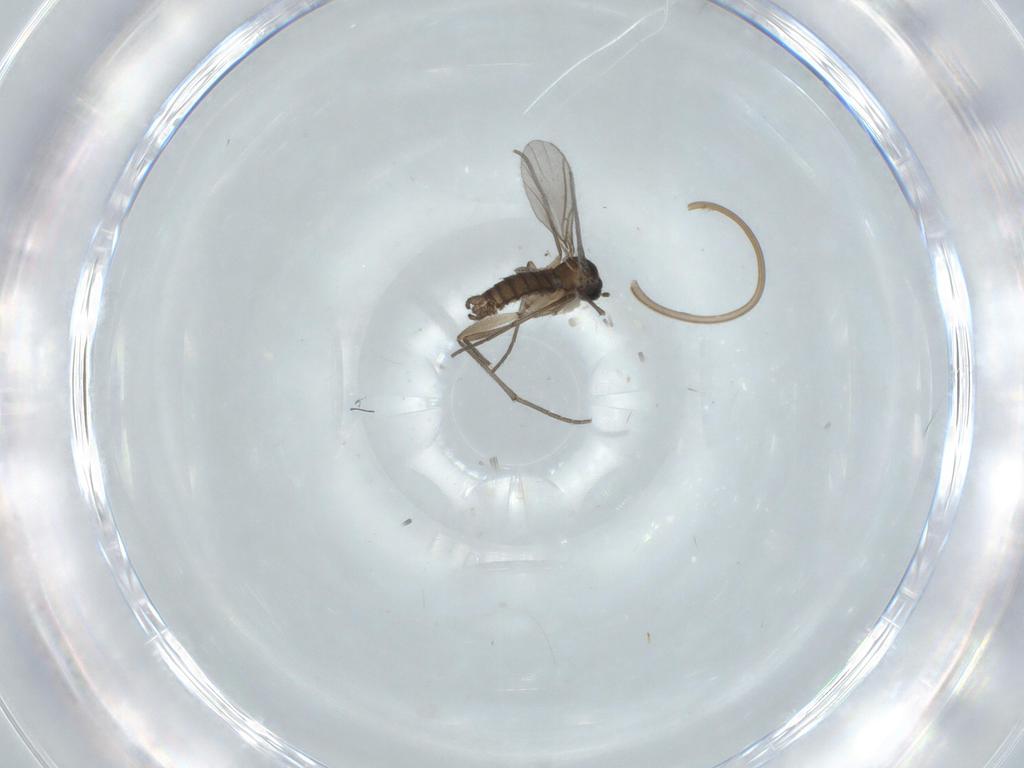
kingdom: Animalia
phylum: Arthropoda
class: Insecta
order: Diptera
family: Sciaridae
